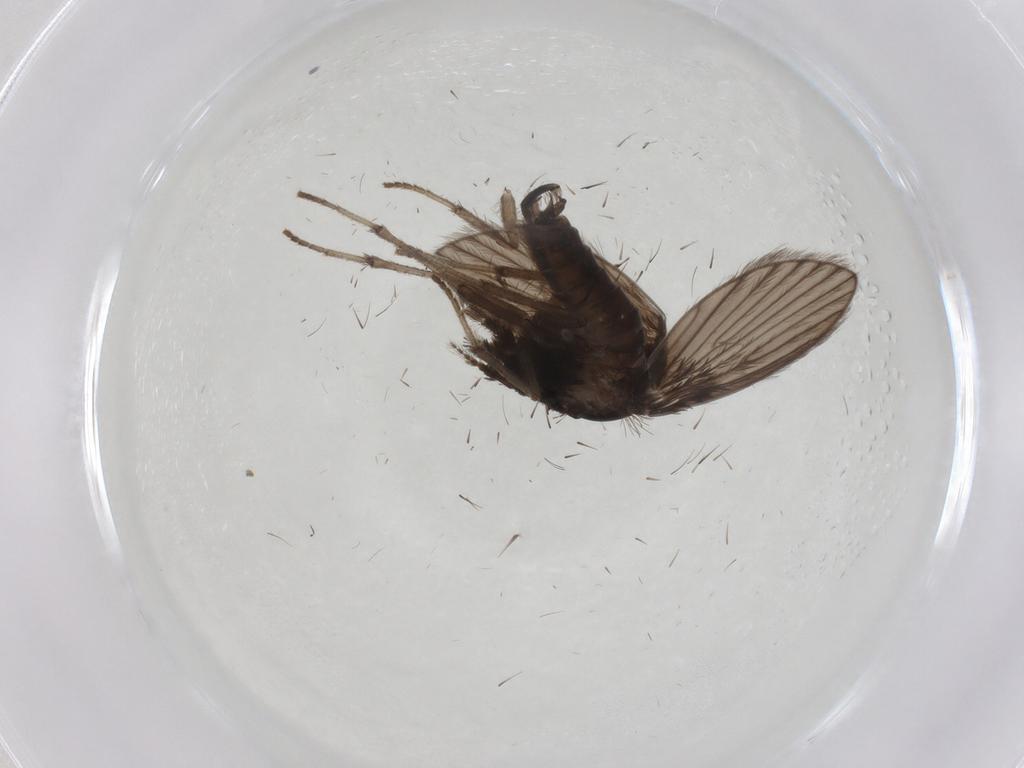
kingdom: Animalia
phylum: Arthropoda
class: Insecta
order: Diptera
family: Psychodidae
